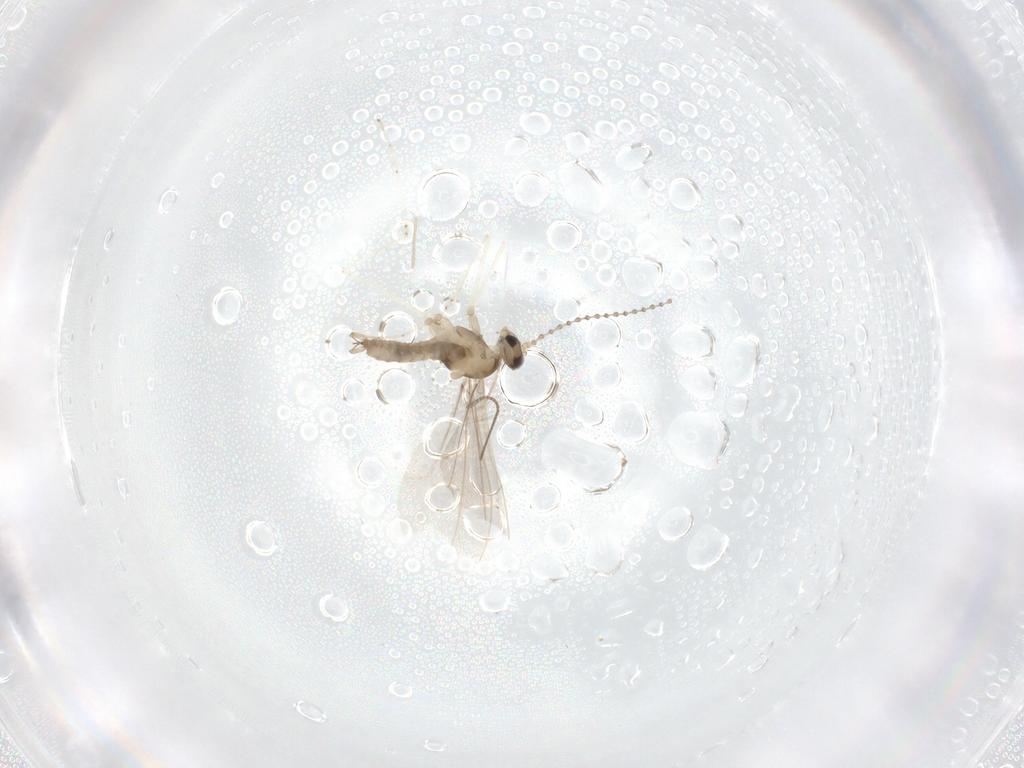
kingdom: Animalia
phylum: Arthropoda
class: Insecta
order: Diptera
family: Cecidomyiidae
